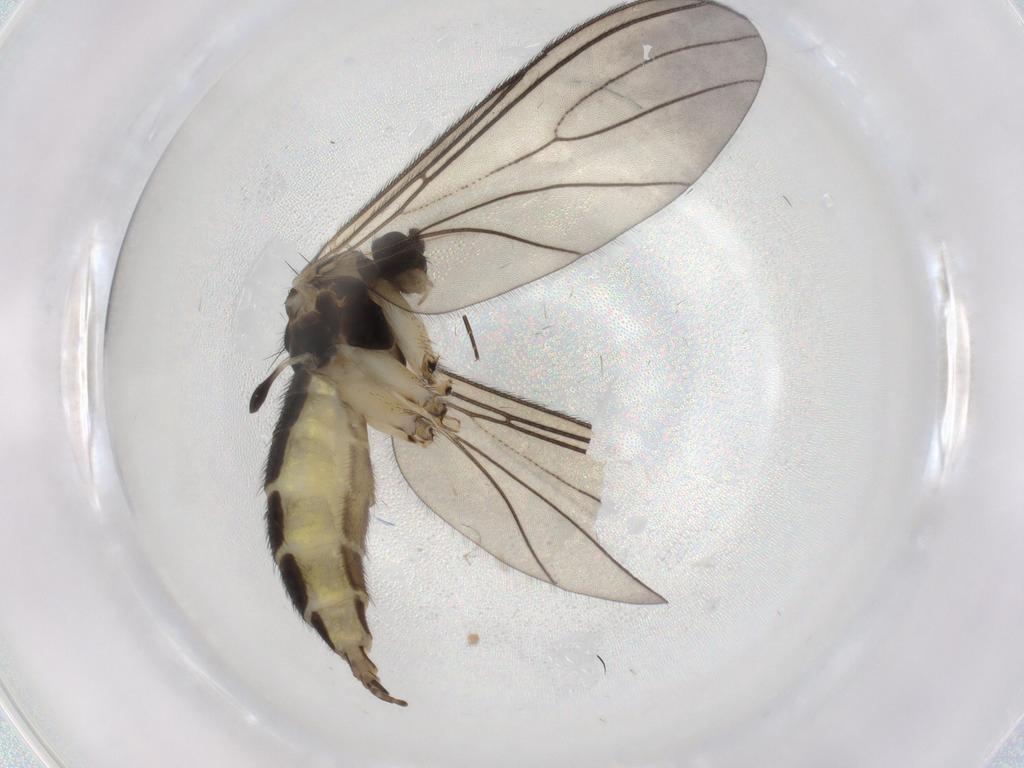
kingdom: Animalia
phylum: Arthropoda
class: Insecta
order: Diptera
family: Sciaridae
